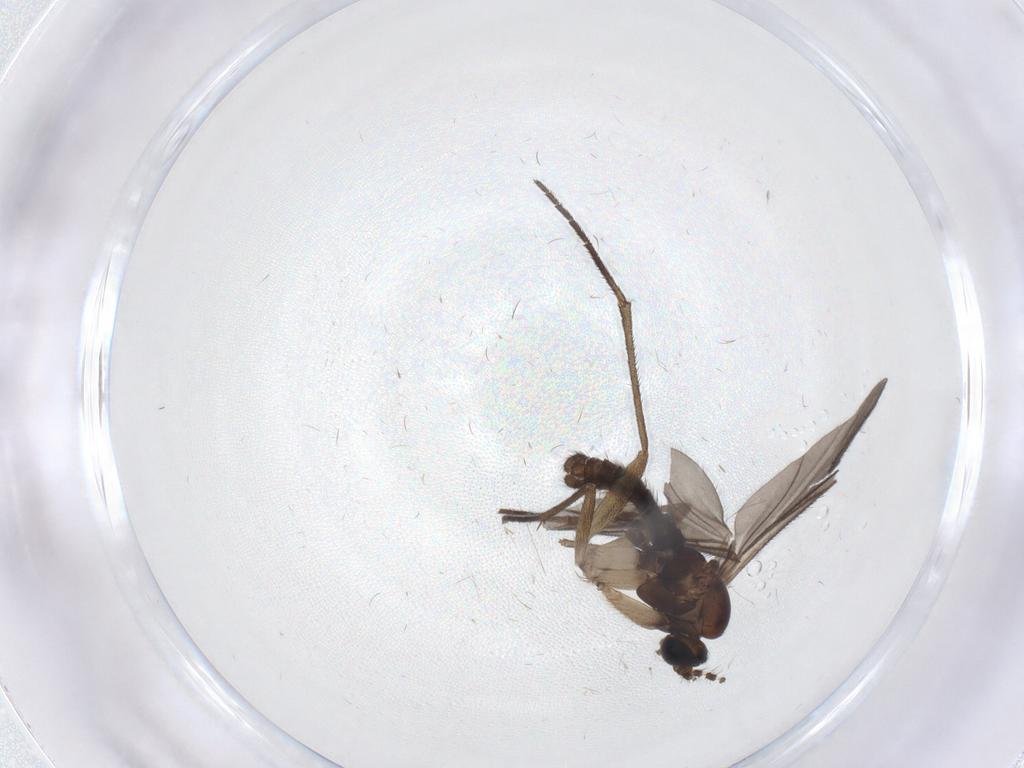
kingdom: Animalia
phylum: Arthropoda
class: Insecta
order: Diptera
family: Sciaridae
